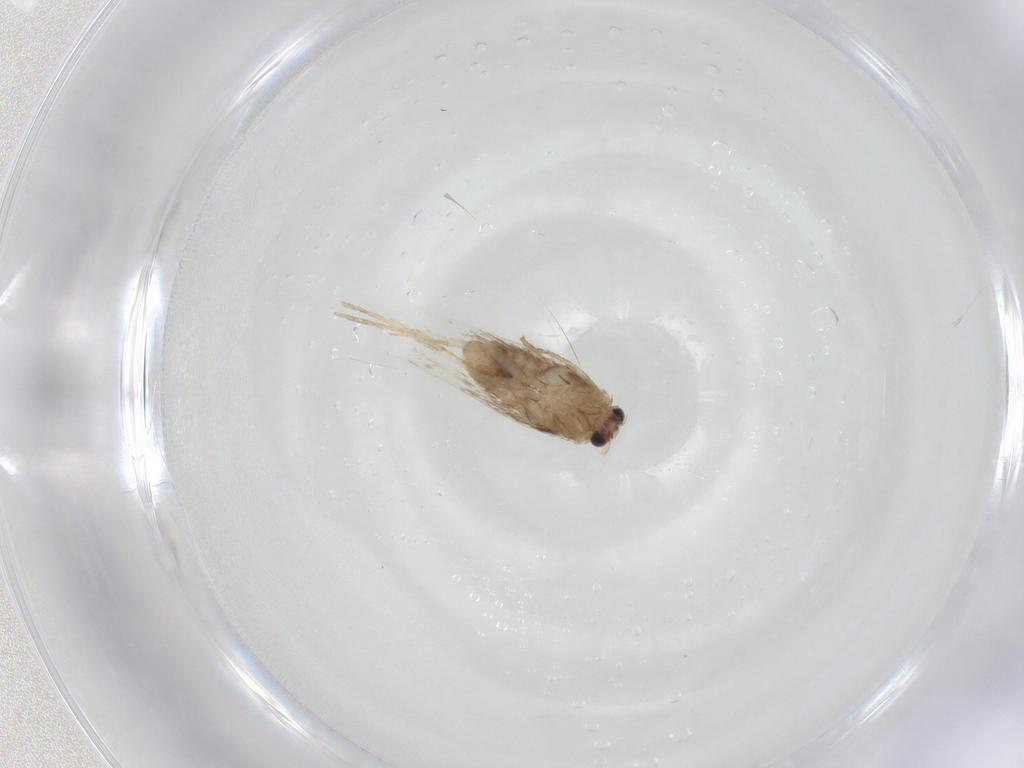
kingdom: Animalia
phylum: Arthropoda
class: Insecta
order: Lepidoptera
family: Nepticulidae
